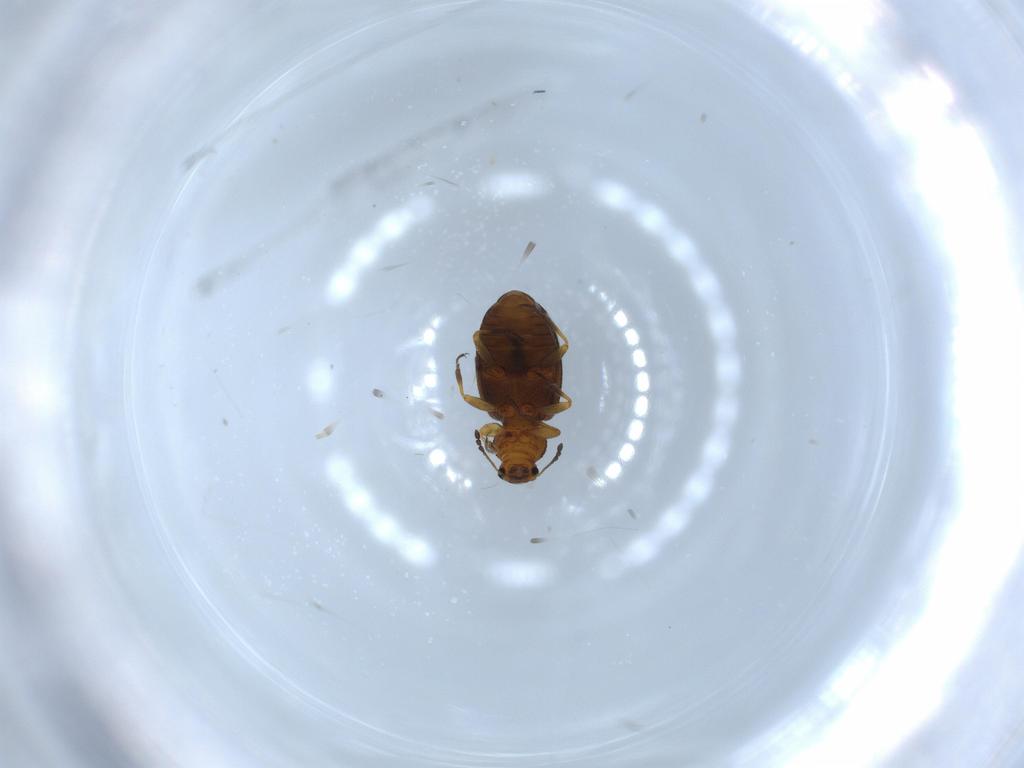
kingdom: Animalia
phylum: Arthropoda
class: Insecta
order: Coleoptera
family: Latridiidae
